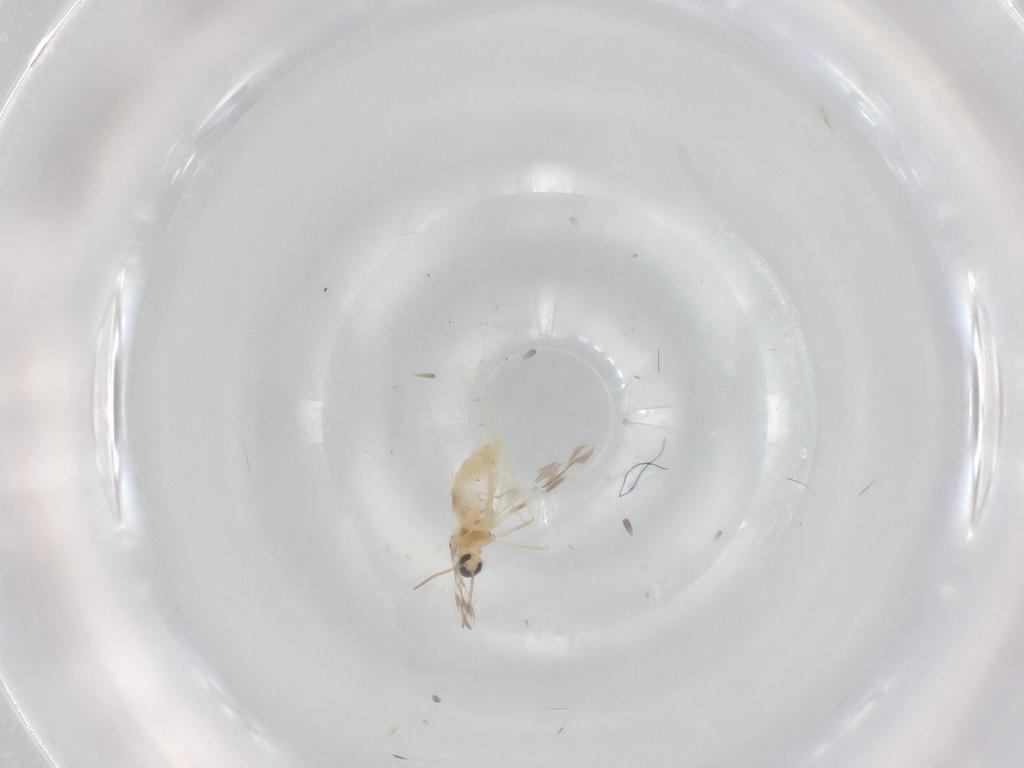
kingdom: Animalia
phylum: Arthropoda
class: Insecta
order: Diptera
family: Cecidomyiidae
